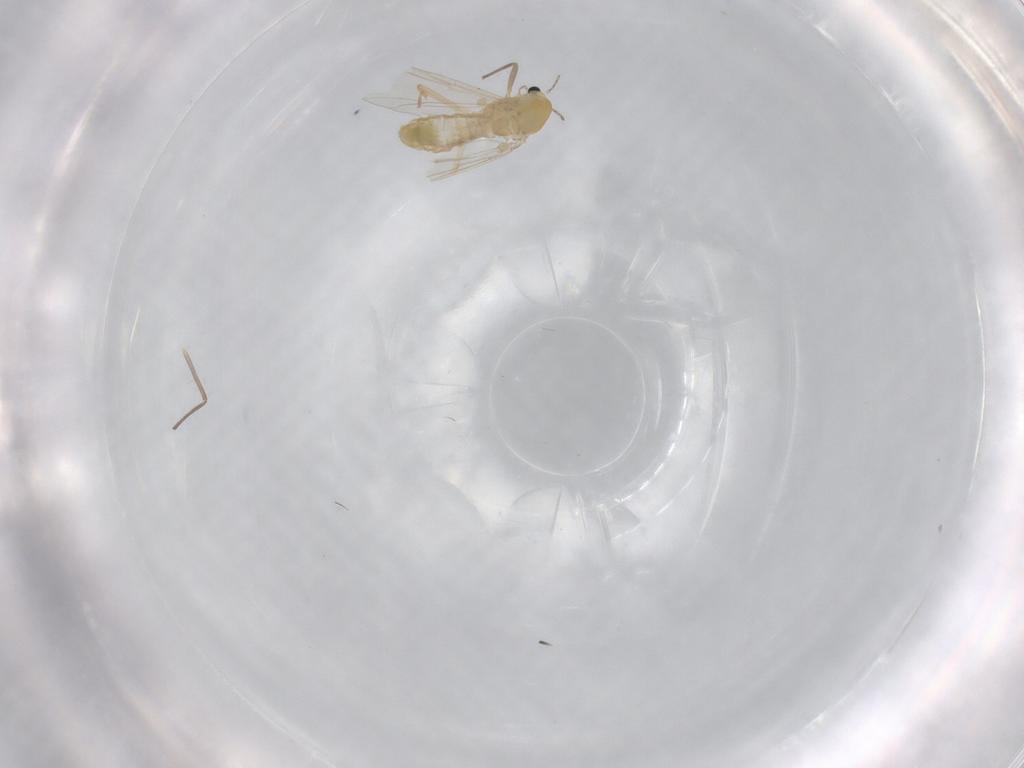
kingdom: Animalia
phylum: Arthropoda
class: Insecta
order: Diptera
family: Chironomidae
